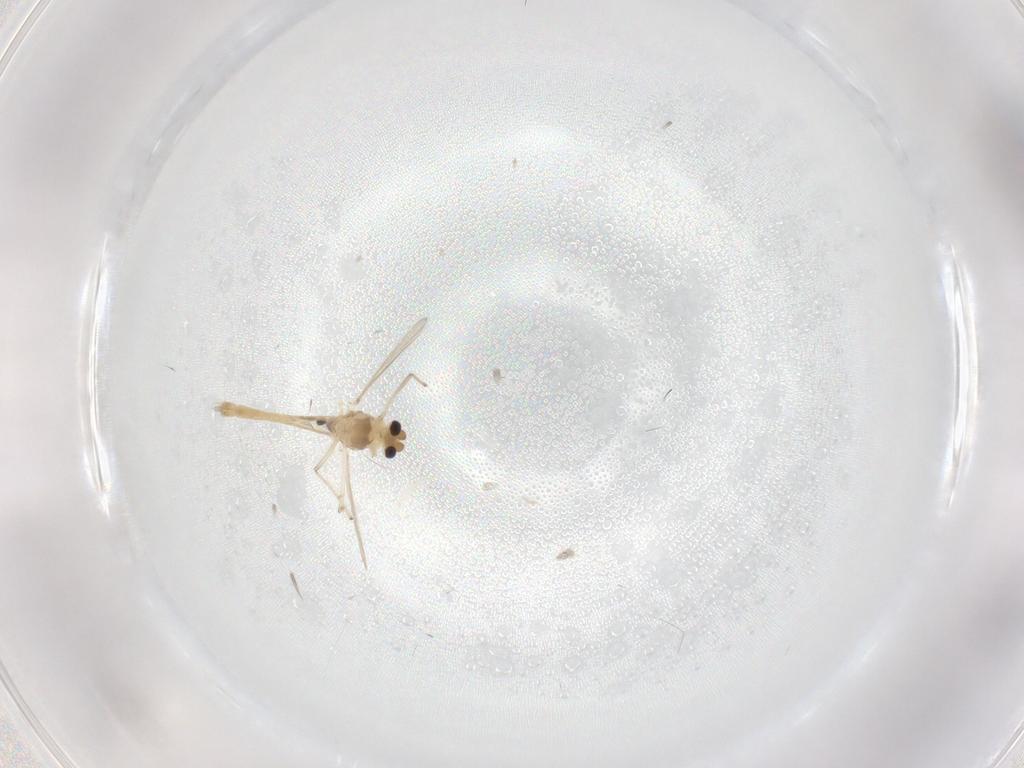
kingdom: Animalia
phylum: Arthropoda
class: Insecta
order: Diptera
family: Chironomidae
